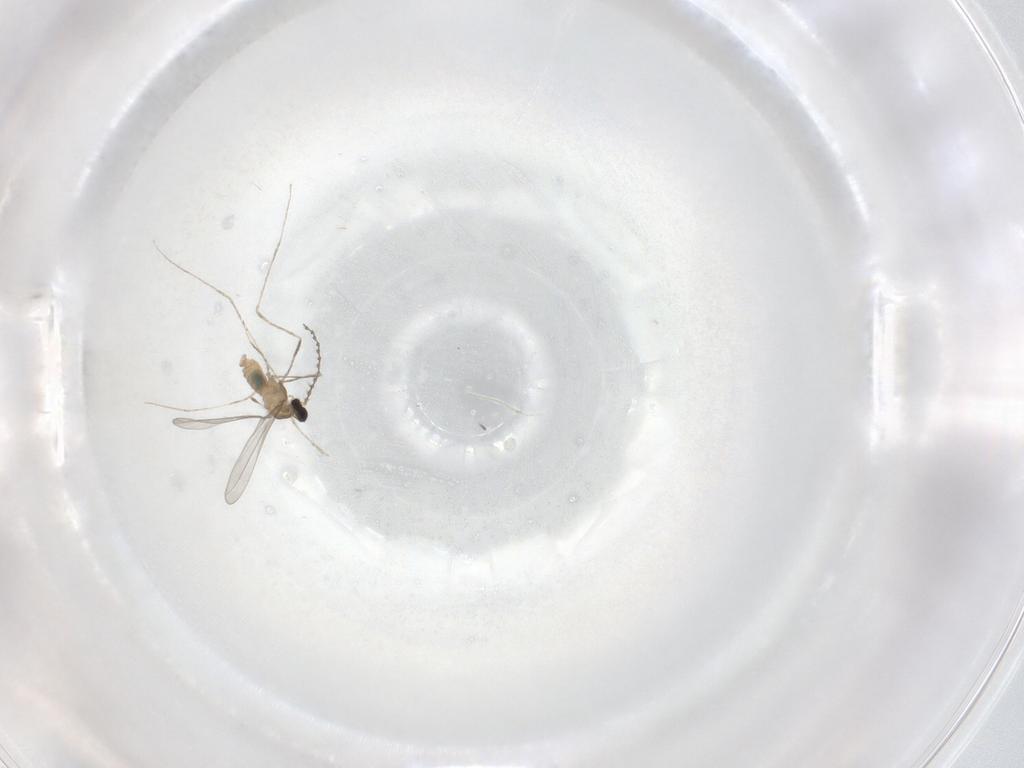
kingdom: Animalia
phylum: Arthropoda
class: Insecta
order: Diptera
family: Cecidomyiidae
